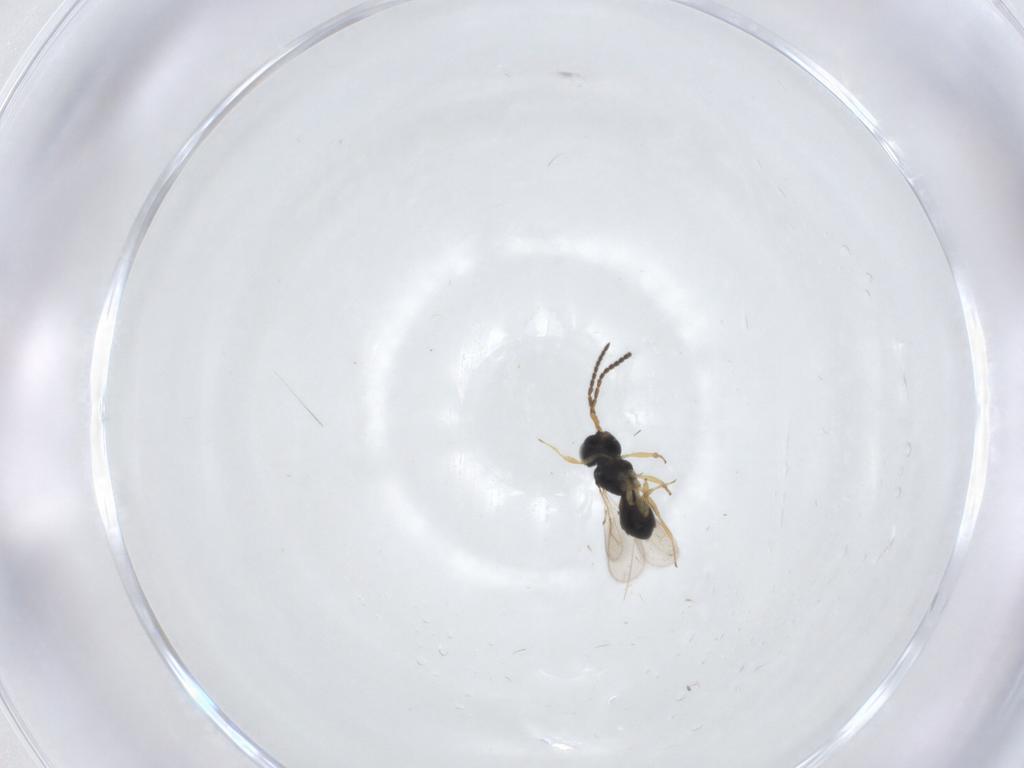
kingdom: Animalia
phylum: Arthropoda
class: Insecta
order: Hymenoptera
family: Scelionidae
